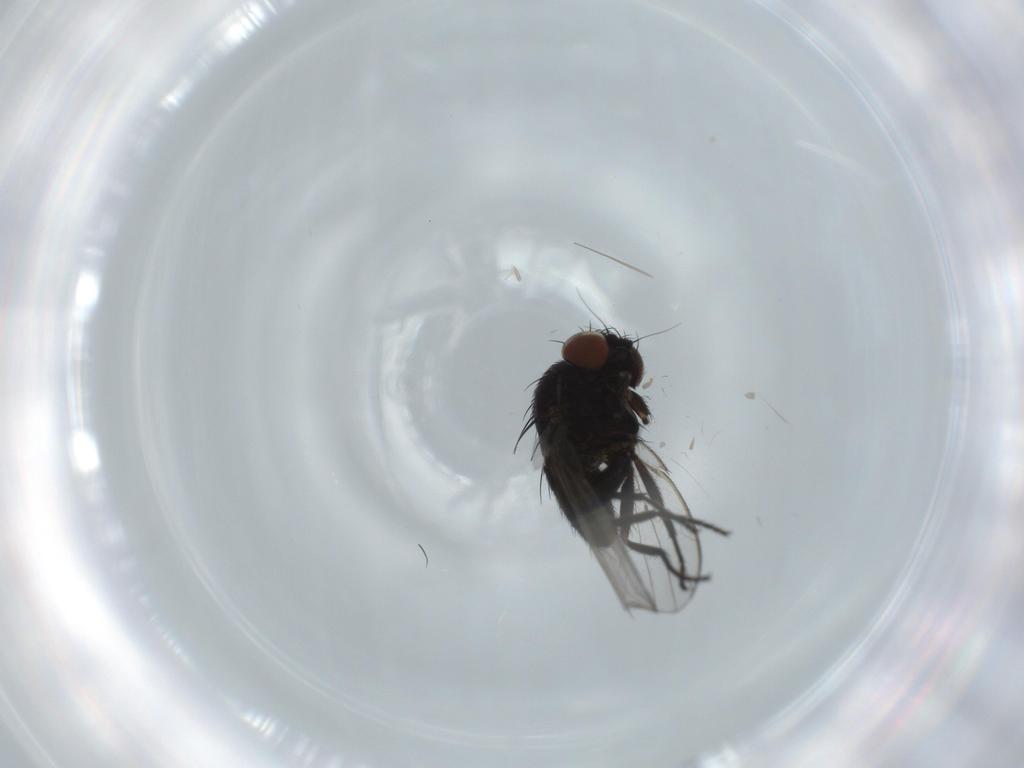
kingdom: Animalia
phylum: Arthropoda
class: Insecta
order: Diptera
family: Milichiidae
